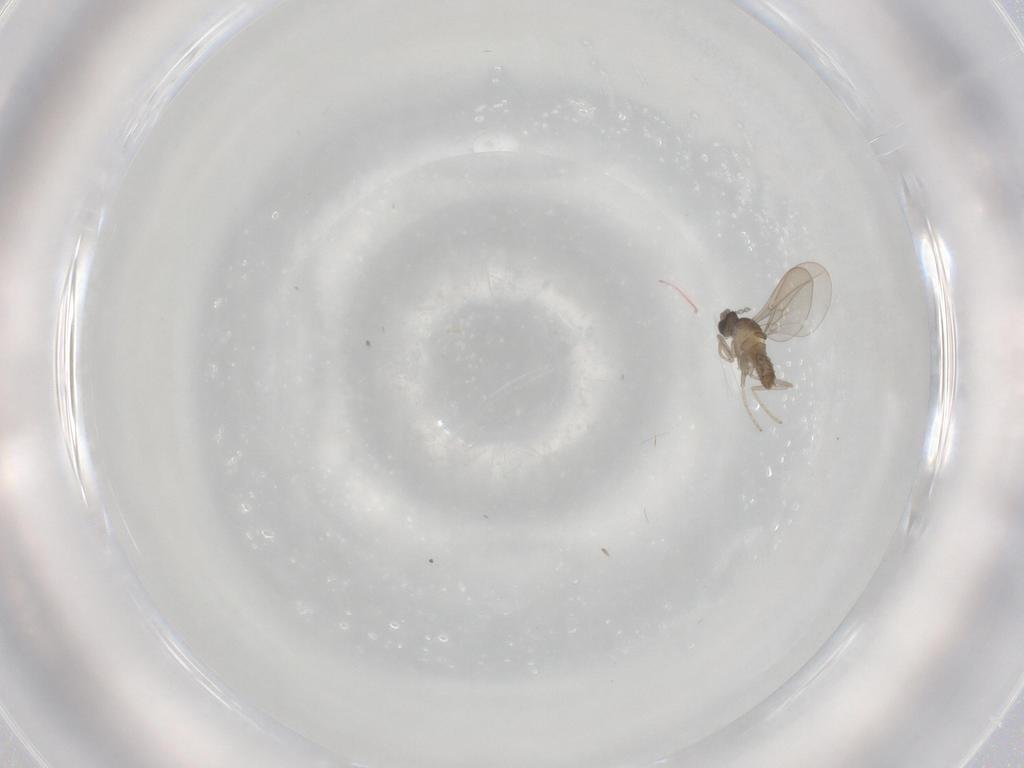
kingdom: Animalia
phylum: Arthropoda
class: Insecta
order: Diptera
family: Cecidomyiidae
